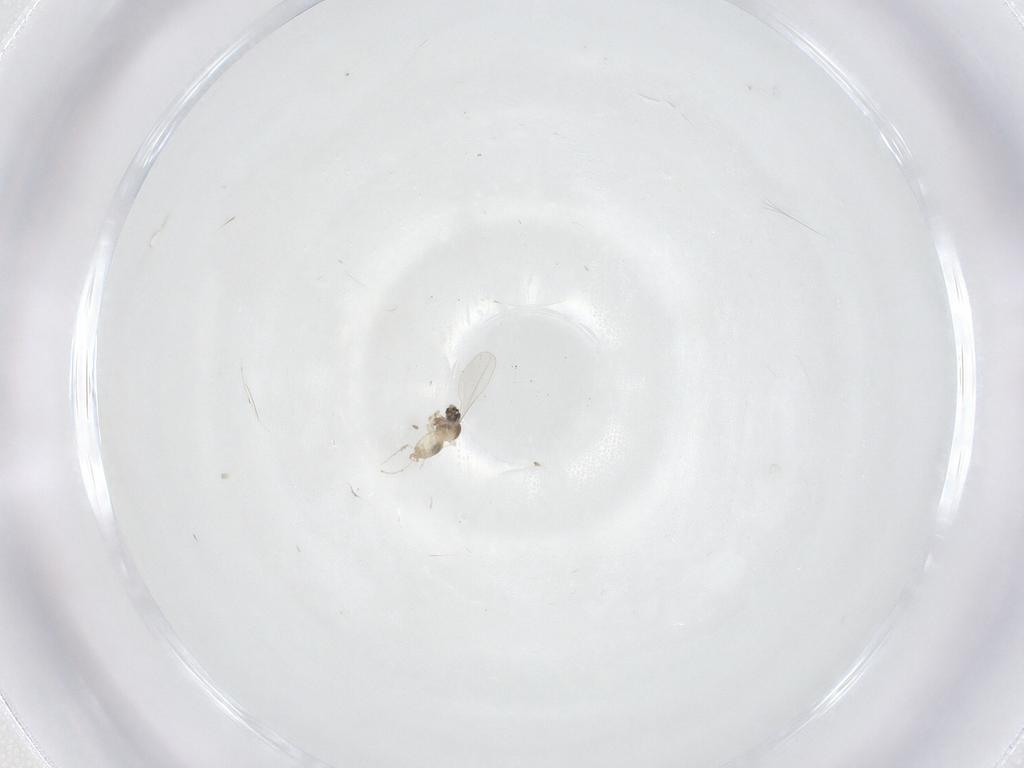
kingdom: Animalia
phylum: Arthropoda
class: Insecta
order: Diptera
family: Cecidomyiidae
